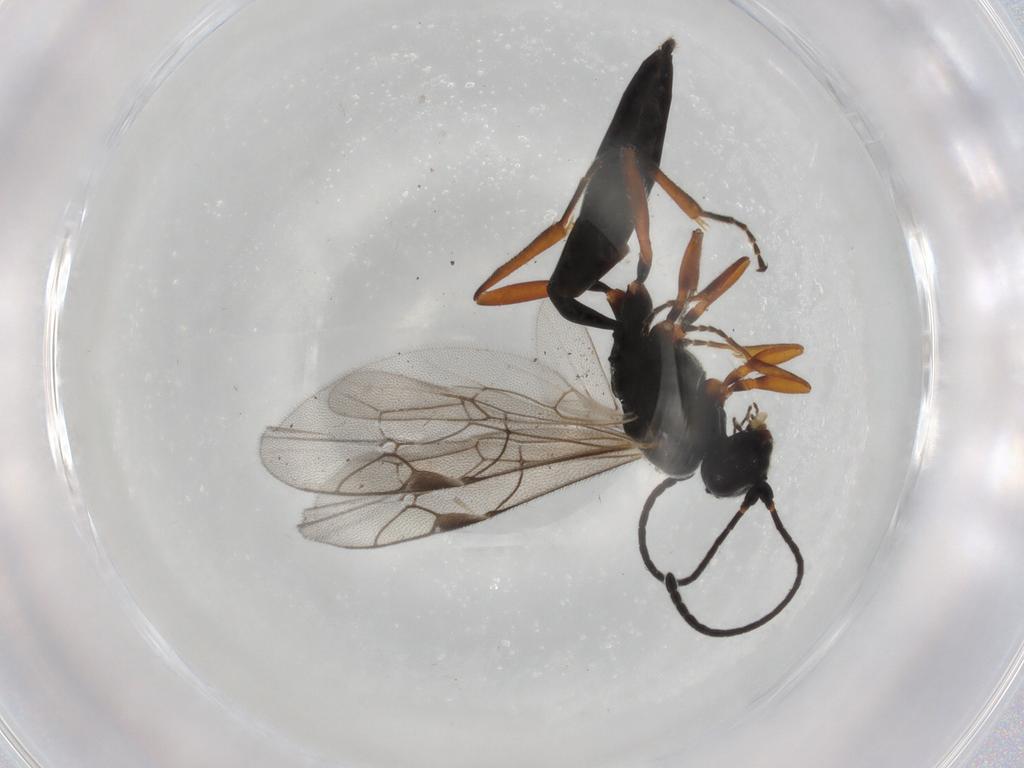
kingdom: Animalia
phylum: Arthropoda
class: Insecta
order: Hymenoptera
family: Ichneumonidae
